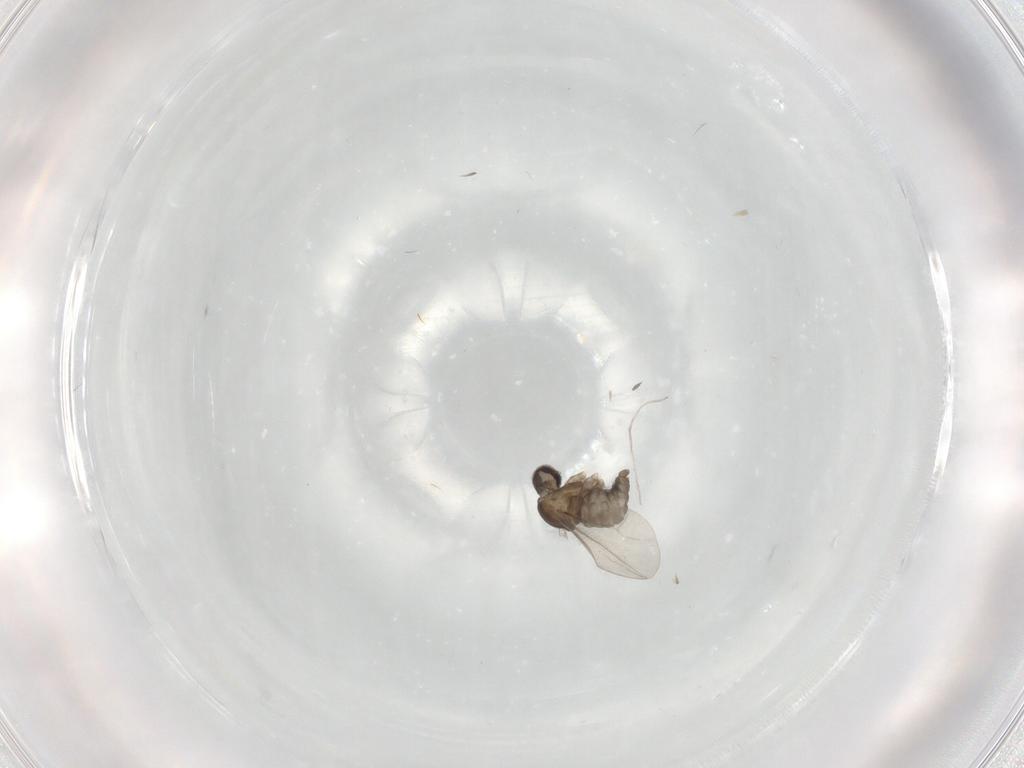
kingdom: Animalia
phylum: Arthropoda
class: Insecta
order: Diptera
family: Cecidomyiidae
